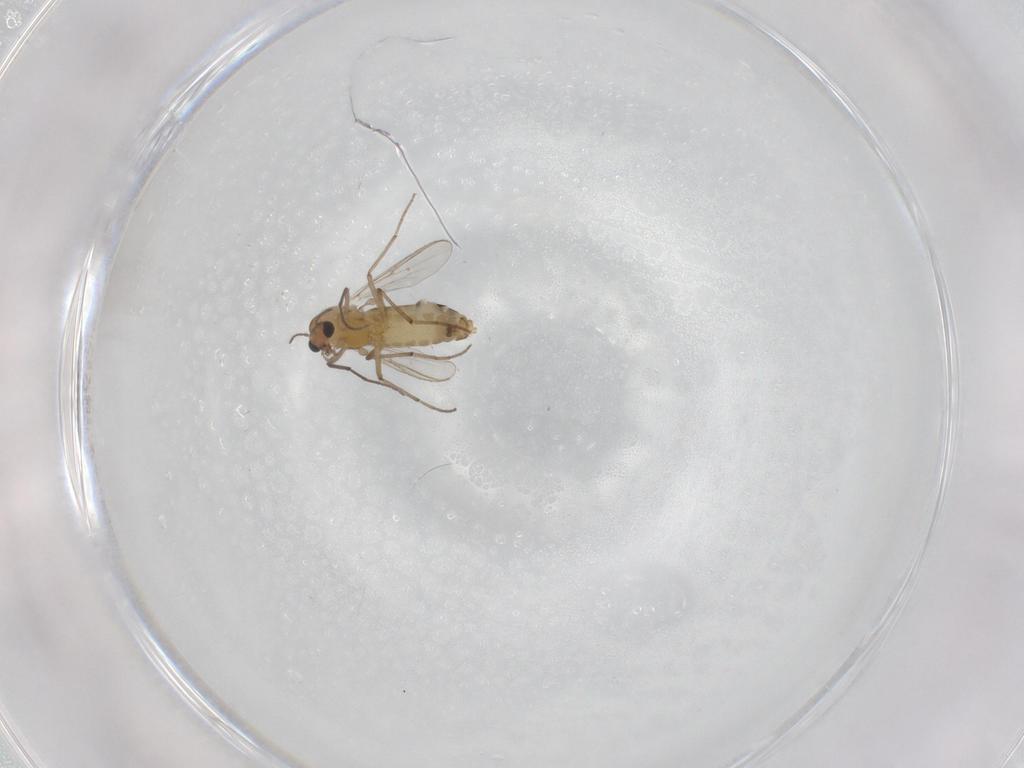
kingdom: Animalia
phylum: Arthropoda
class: Insecta
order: Diptera
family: Chironomidae
